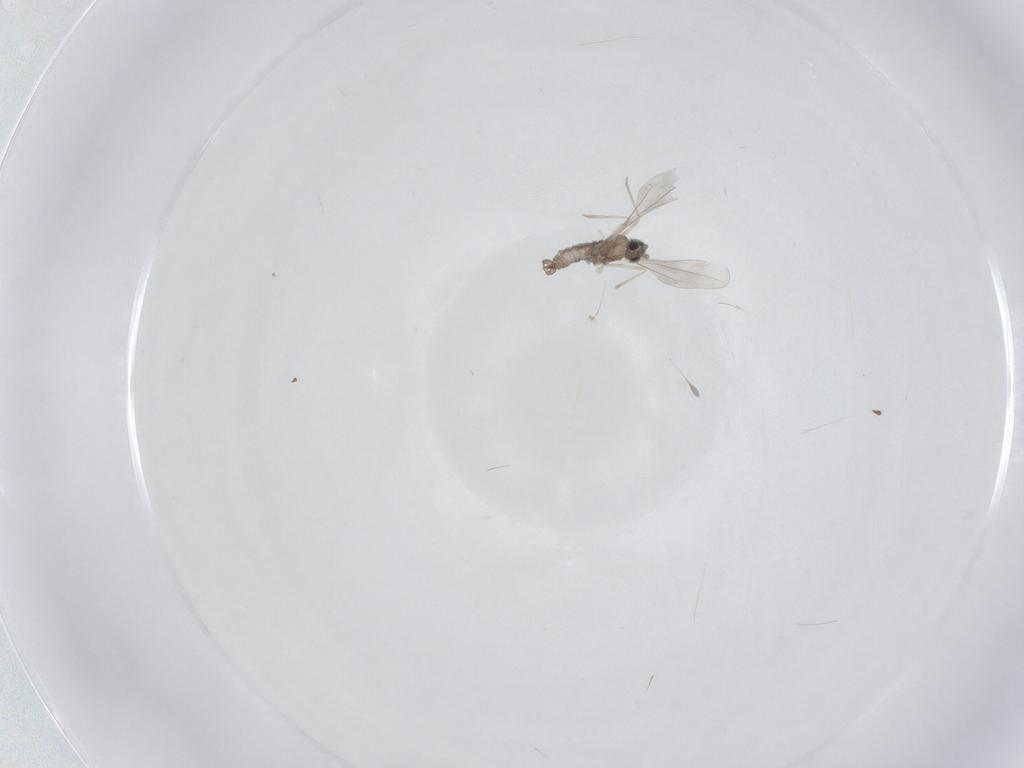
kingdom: Animalia
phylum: Arthropoda
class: Insecta
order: Diptera
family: Cecidomyiidae
